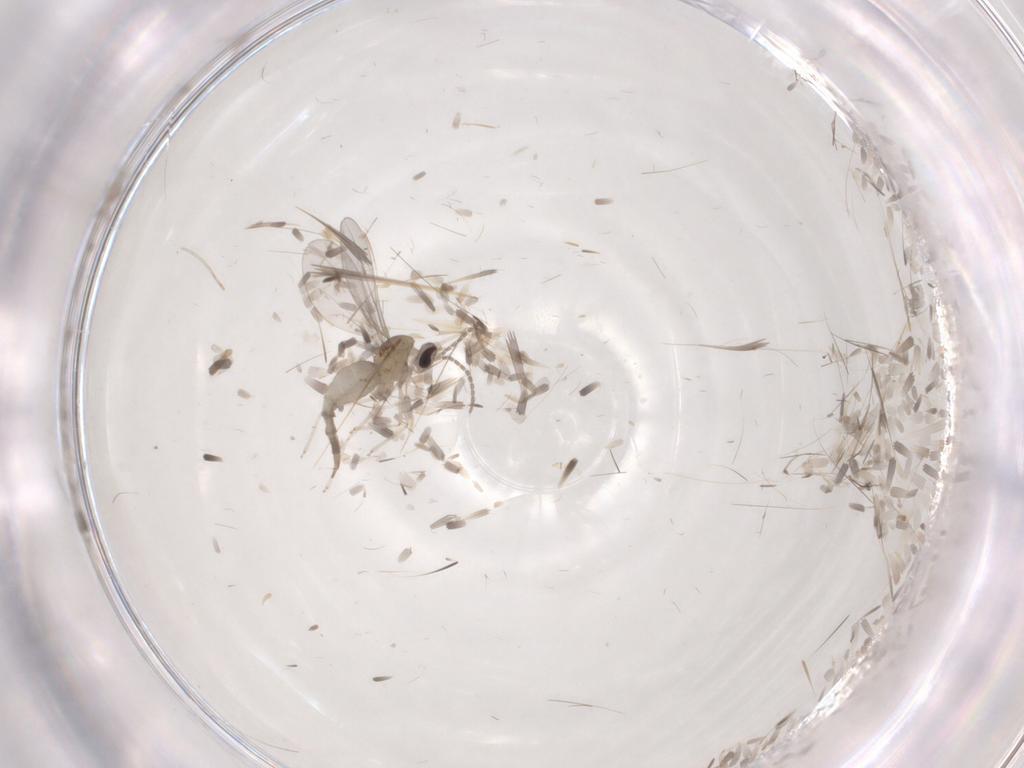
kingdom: Animalia
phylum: Arthropoda
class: Insecta
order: Diptera
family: Cecidomyiidae
